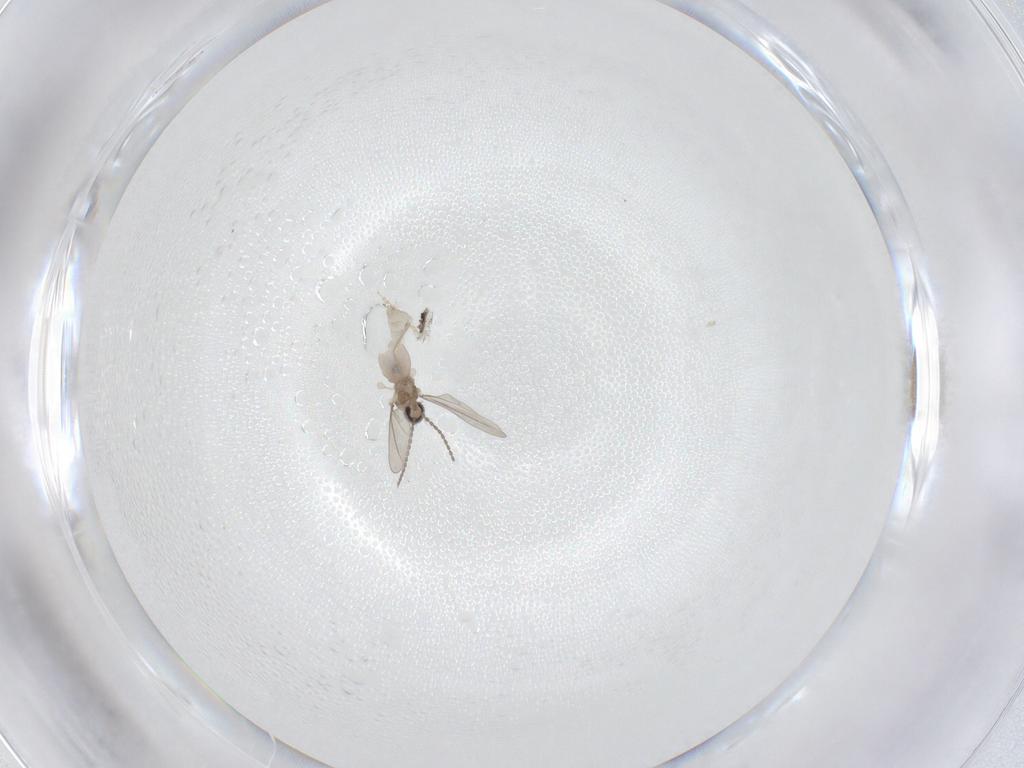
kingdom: Animalia
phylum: Arthropoda
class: Insecta
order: Diptera
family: Cecidomyiidae
